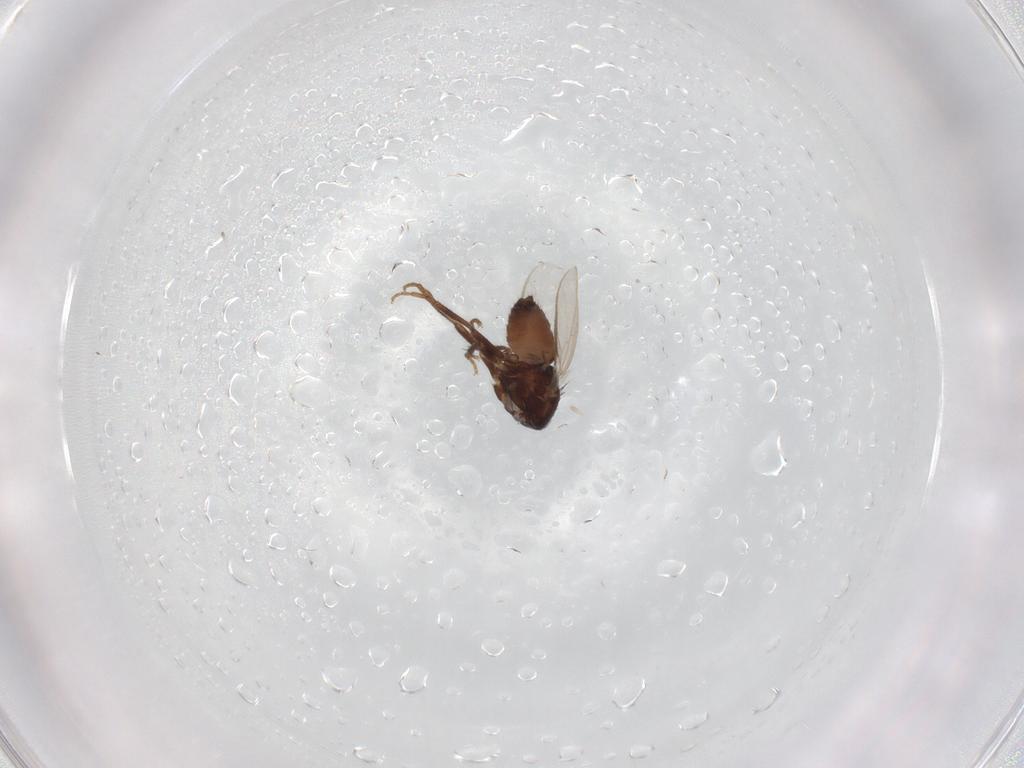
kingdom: Animalia
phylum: Arthropoda
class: Insecta
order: Diptera
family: Sphaeroceridae
